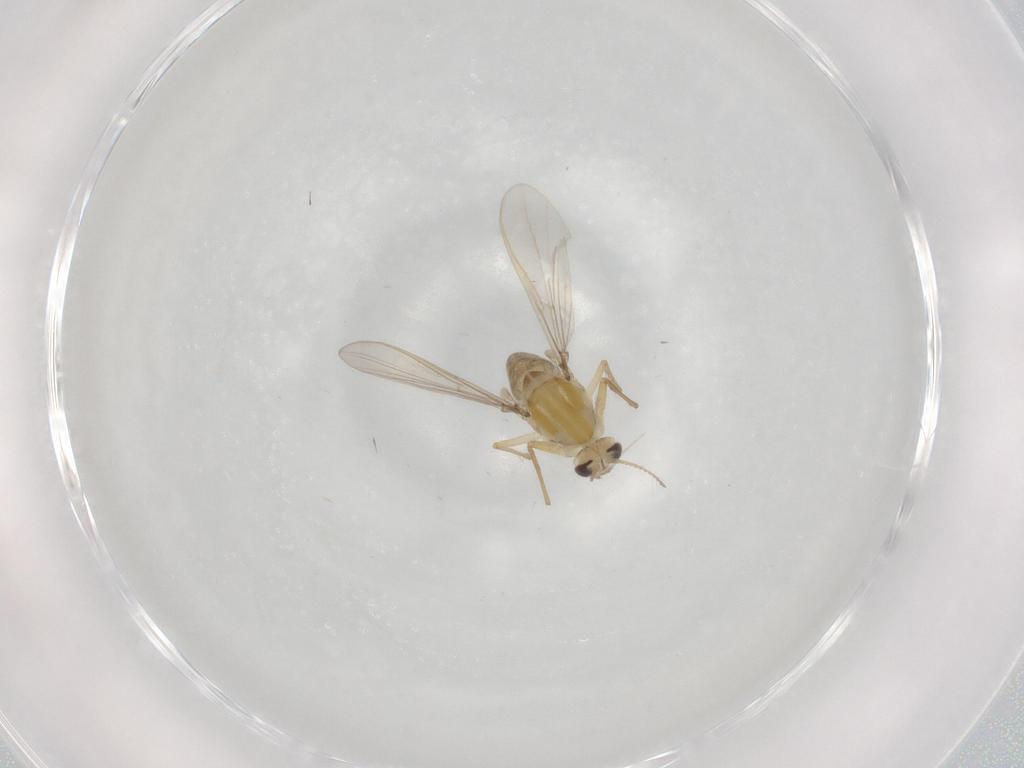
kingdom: Animalia
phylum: Arthropoda
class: Insecta
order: Diptera
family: Chironomidae
